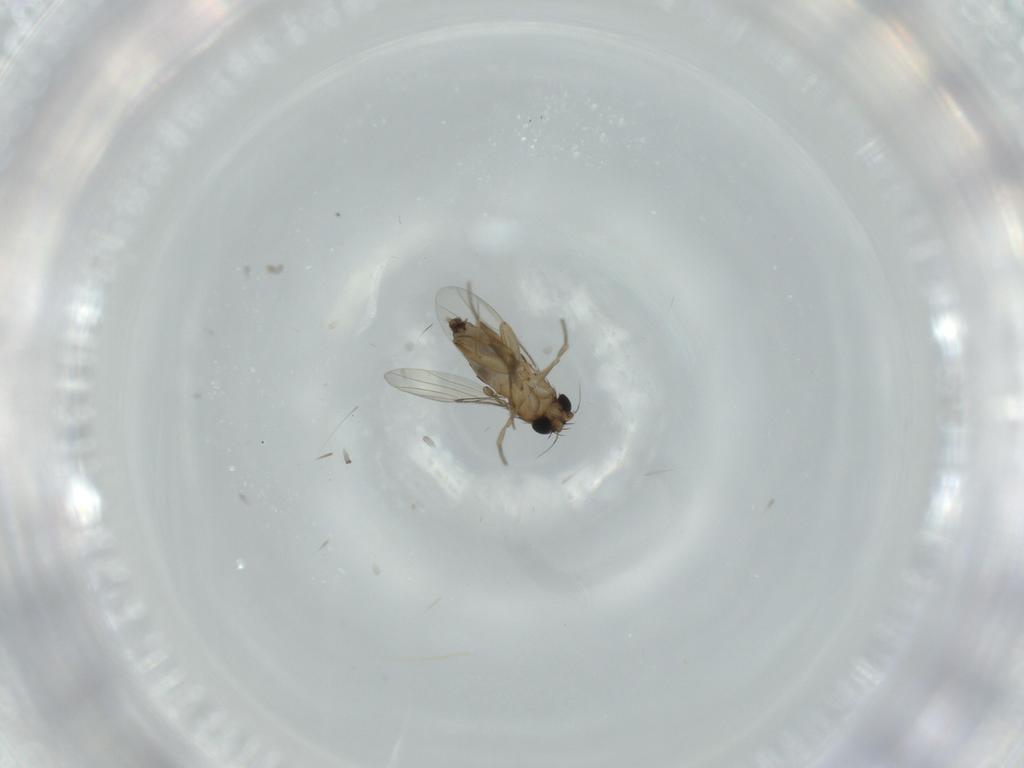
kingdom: Animalia
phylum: Arthropoda
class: Insecta
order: Diptera
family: Phoridae
